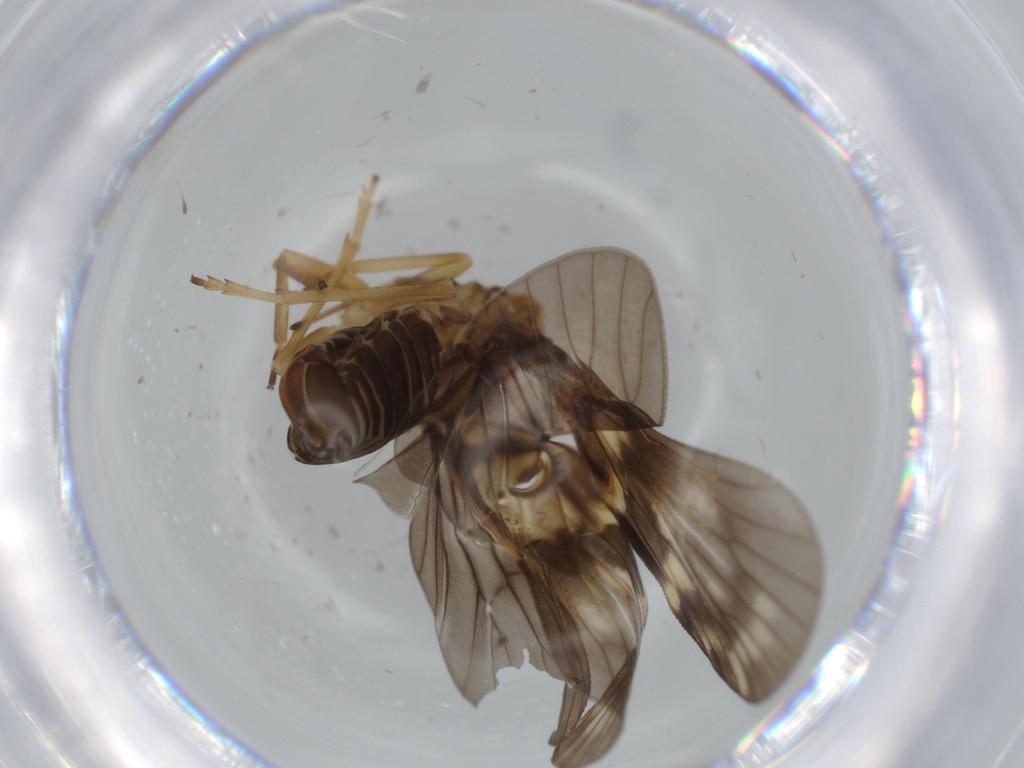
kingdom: Animalia
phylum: Arthropoda
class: Insecta
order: Hemiptera
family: Cixiidae
